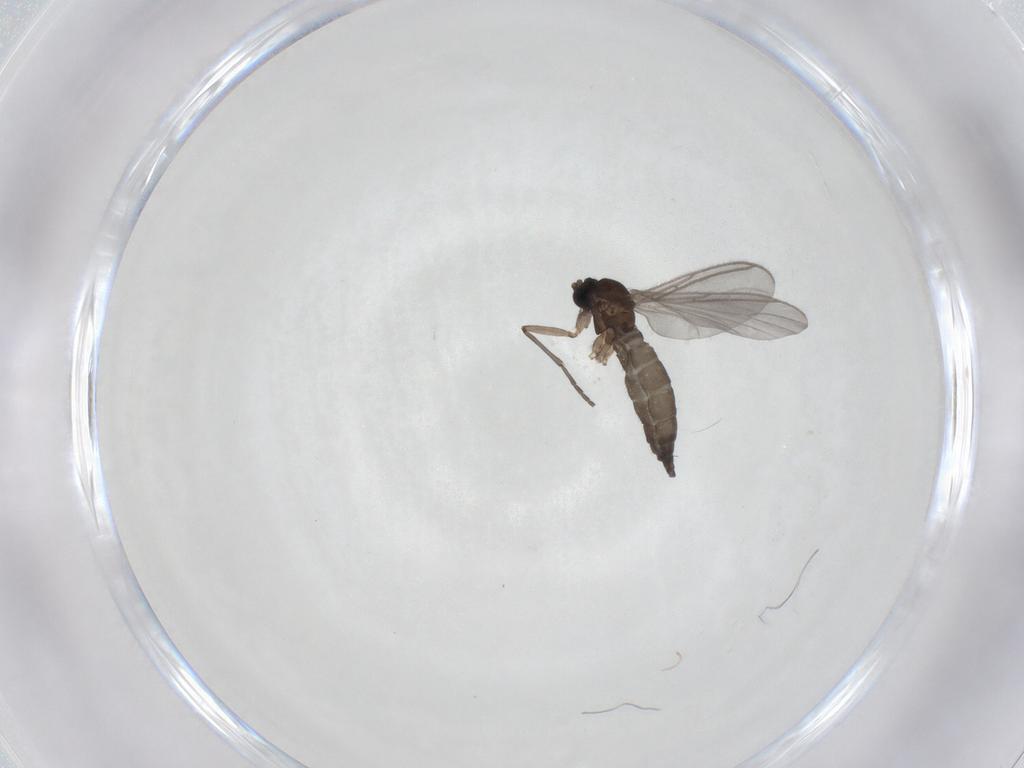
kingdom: Animalia
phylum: Arthropoda
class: Insecta
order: Diptera
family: Sciaridae
